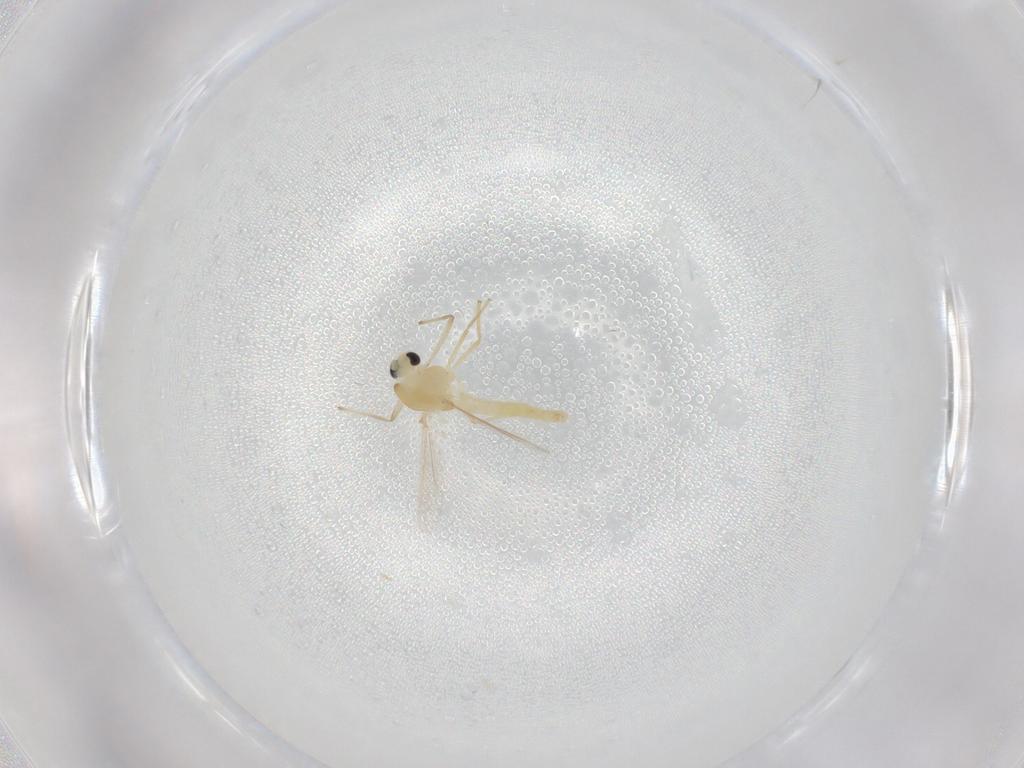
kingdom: Animalia
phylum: Arthropoda
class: Insecta
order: Diptera
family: Chironomidae
